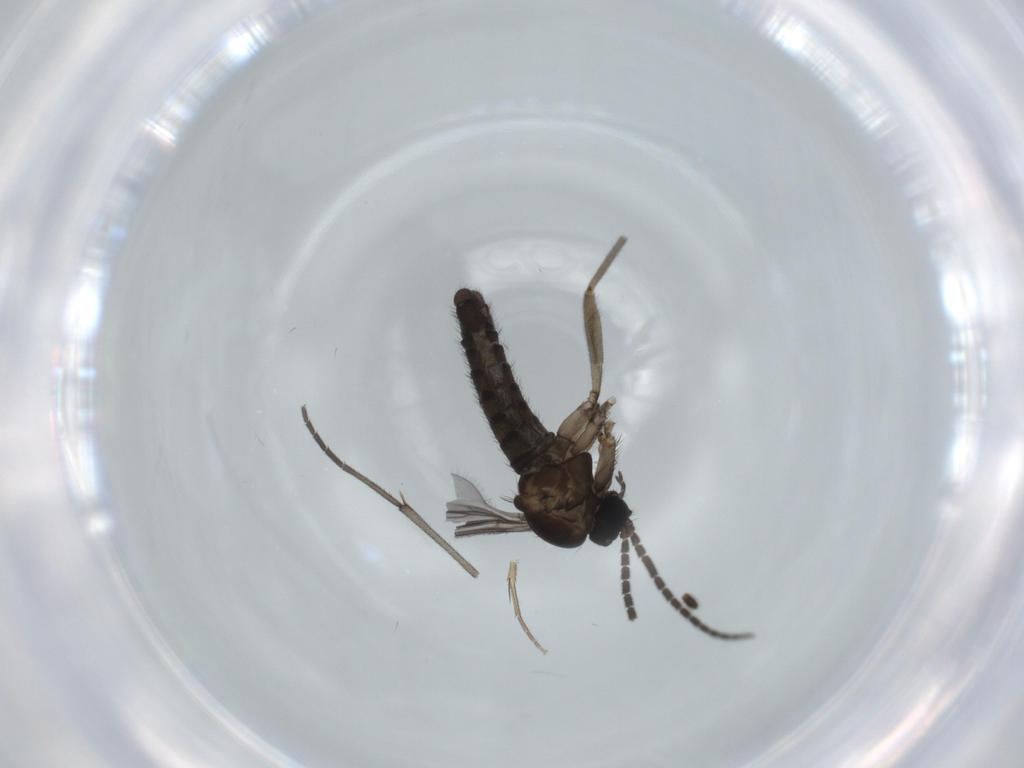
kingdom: Animalia
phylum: Arthropoda
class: Insecta
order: Diptera
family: Sciaridae
